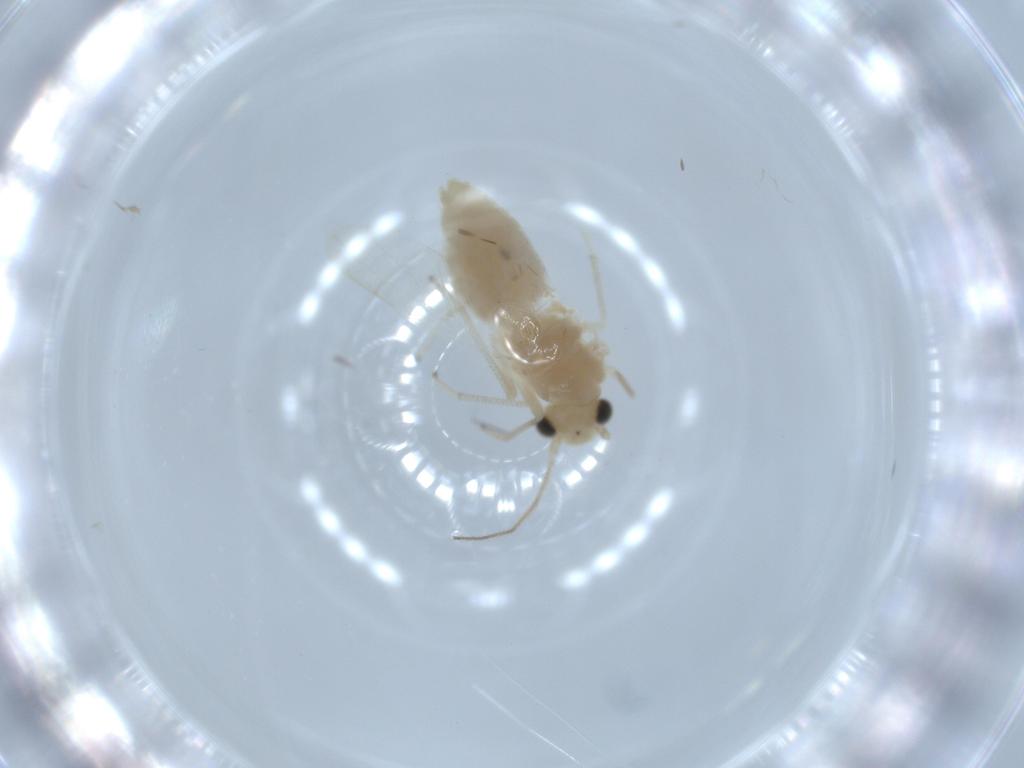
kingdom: Animalia
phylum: Arthropoda
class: Insecta
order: Psocodea
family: Caeciliusidae
